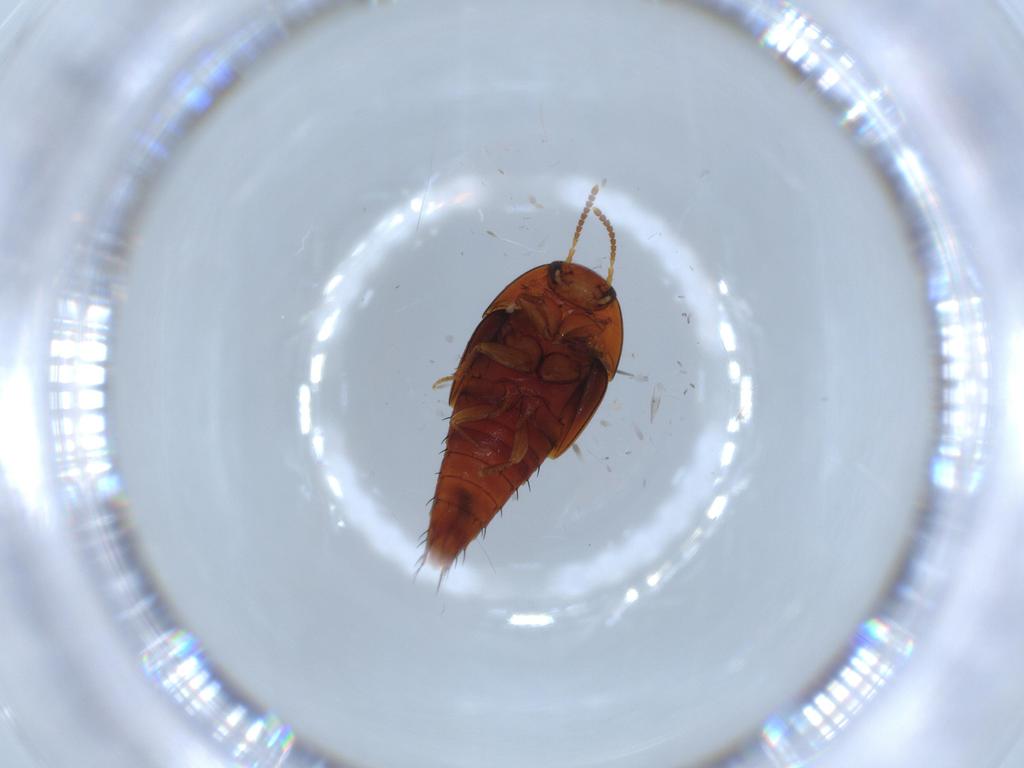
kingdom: Animalia
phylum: Arthropoda
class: Insecta
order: Coleoptera
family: Staphylinidae
